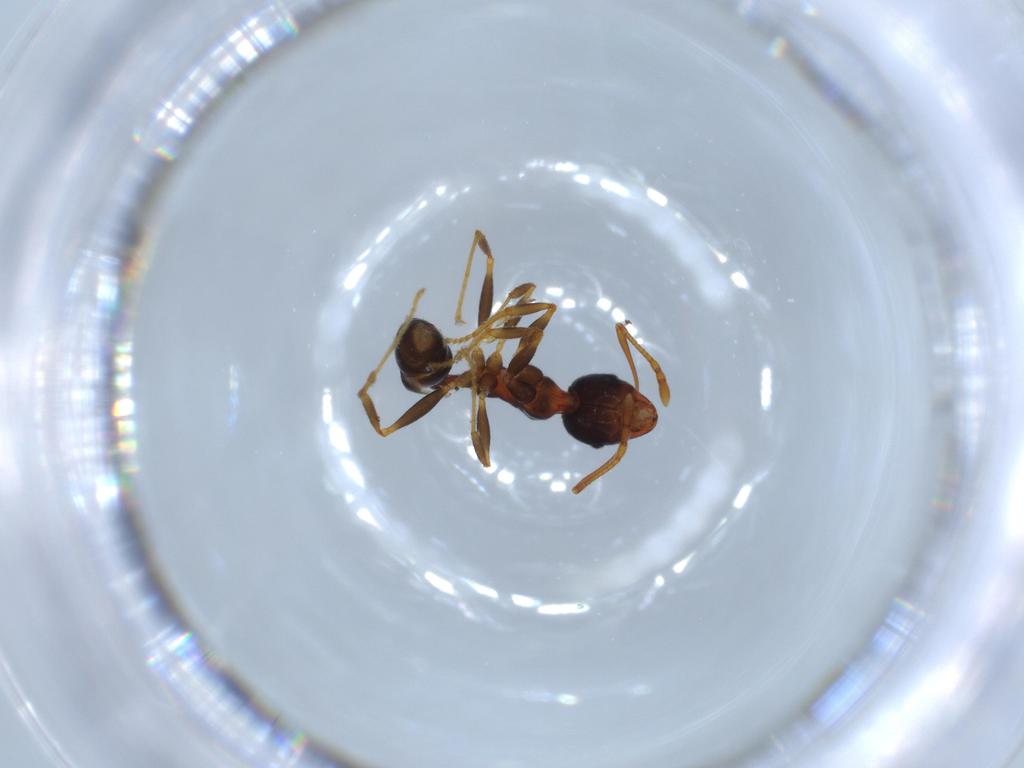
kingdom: Animalia
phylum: Arthropoda
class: Insecta
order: Hymenoptera
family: Formicidae
